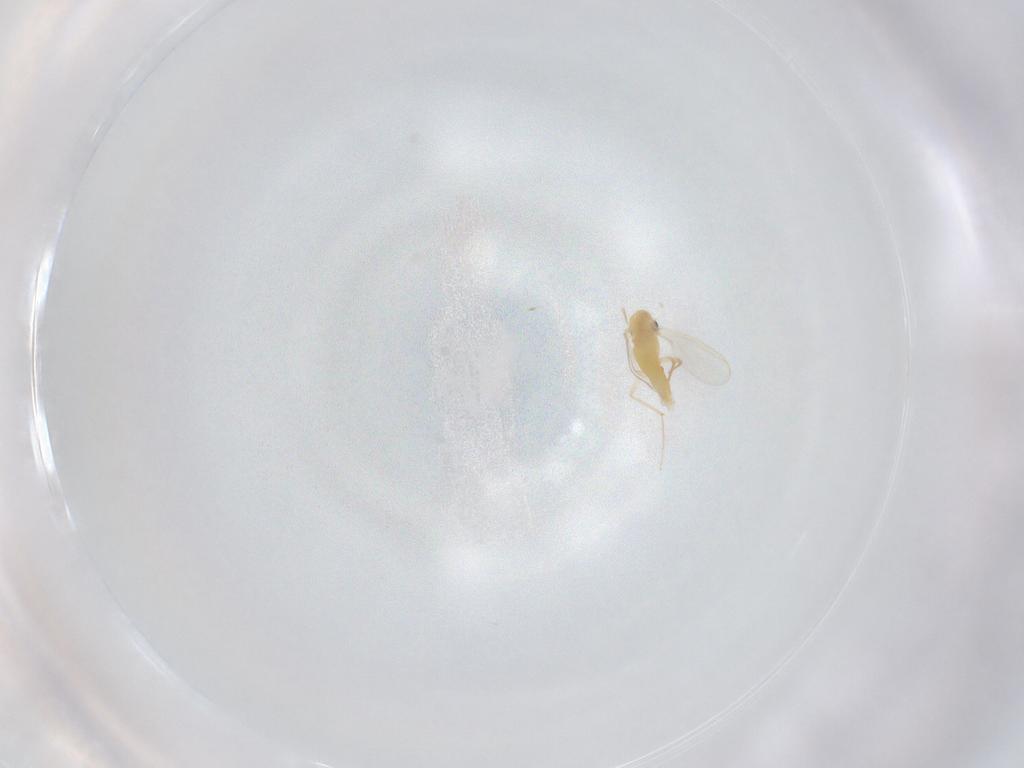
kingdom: Animalia
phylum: Arthropoda
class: Insecta
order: Diptera
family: Chironomidae
